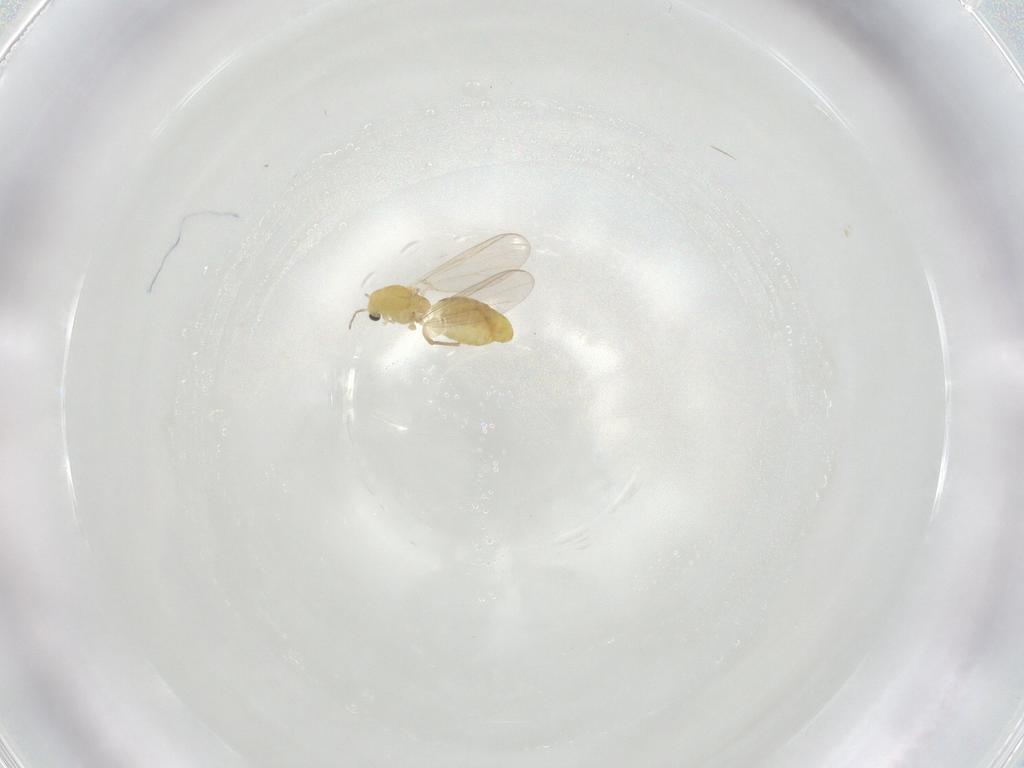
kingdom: Animalia
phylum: Arthropoda
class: Insecta
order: Diptera
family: Chironomidae
